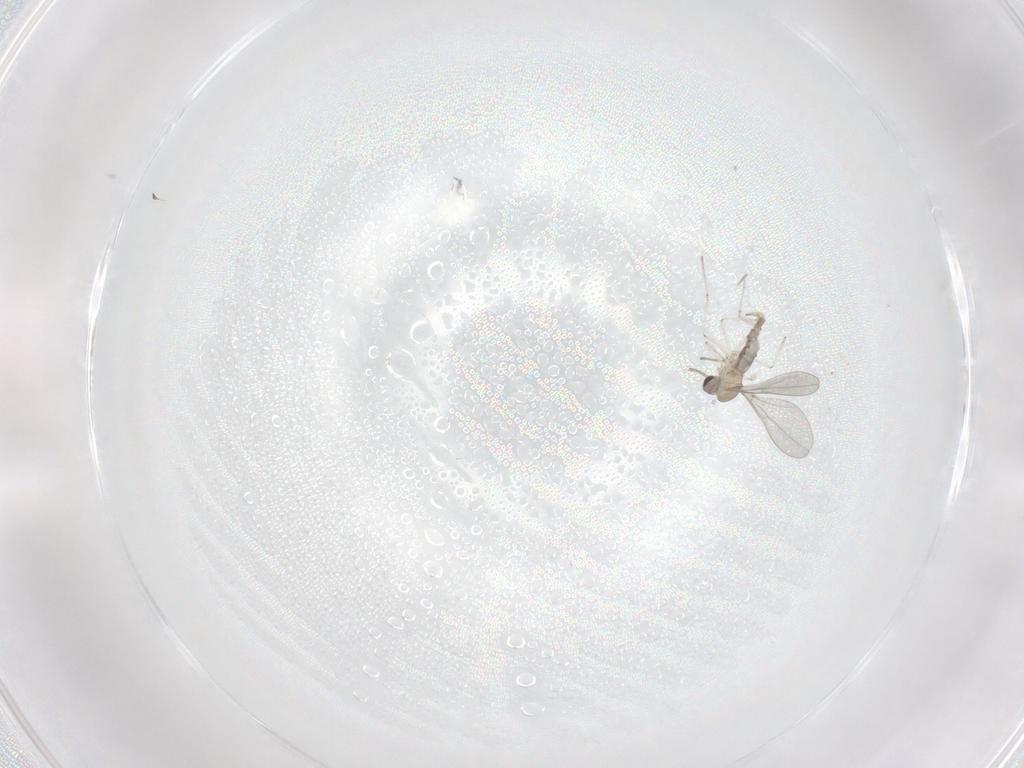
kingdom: Animalia
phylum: Arthropoda
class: Insecta
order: Diptera
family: Cecidomyiidae
